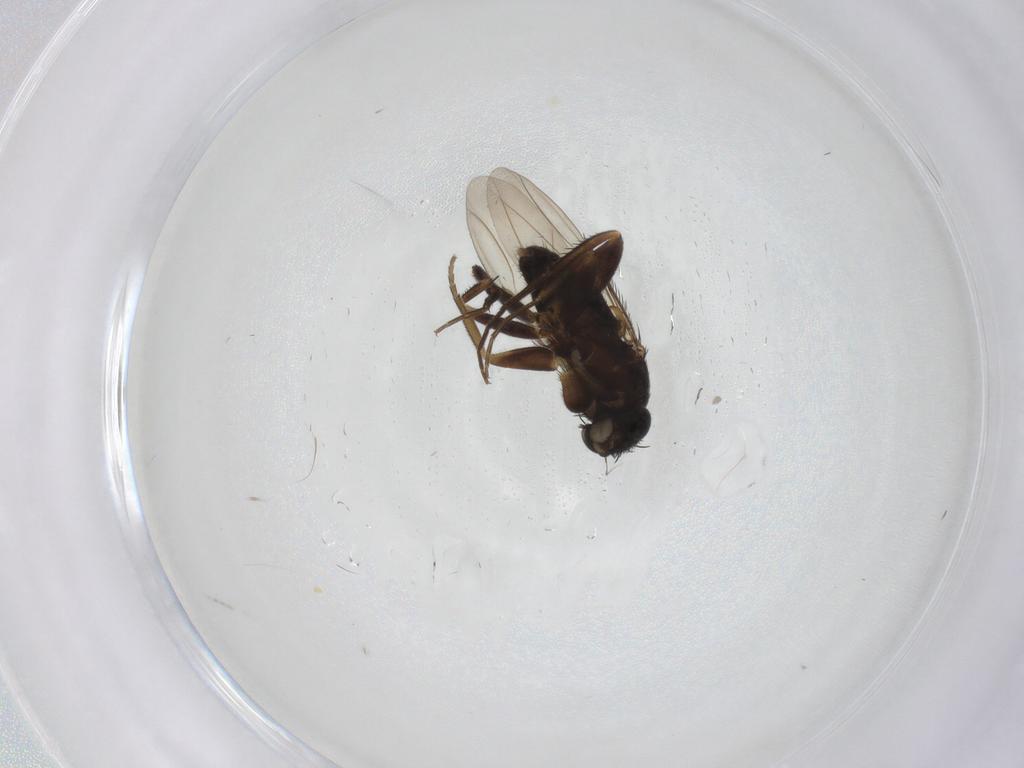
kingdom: Animalia
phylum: Arthropoda
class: Insecta
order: Diptera
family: Phoridae
